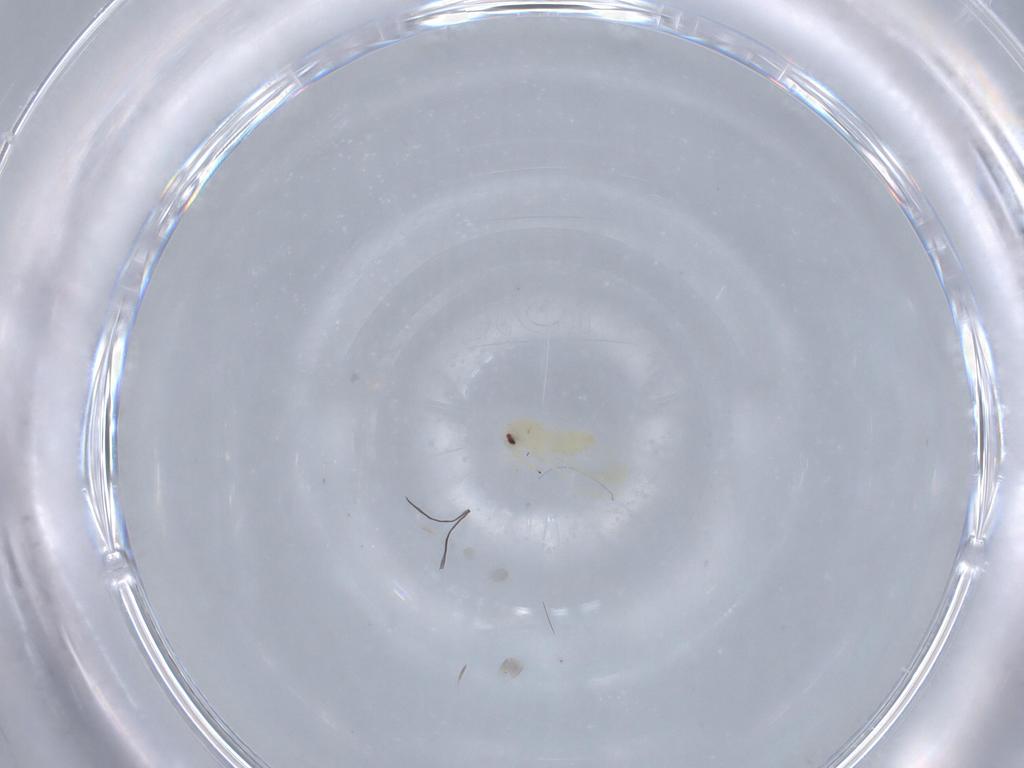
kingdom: Animalia
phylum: Arthropoda
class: Insecta
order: Hemiptera
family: Aleyrodidae
